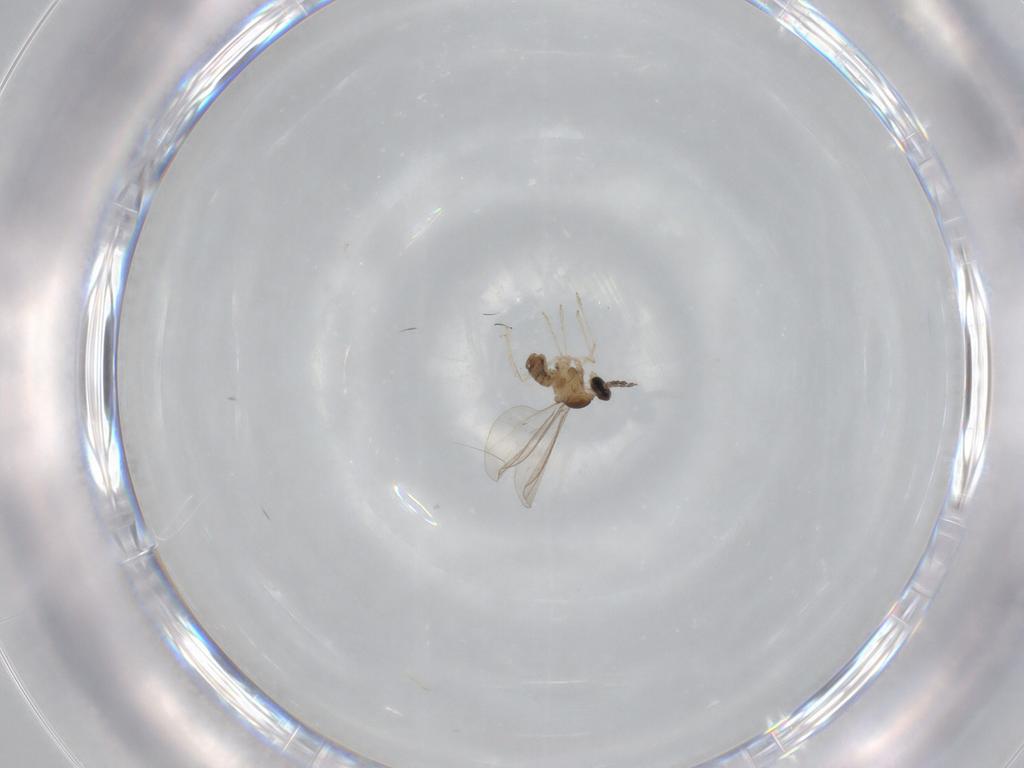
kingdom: Animalia
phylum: Arthropoda
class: Insecta
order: Diptera
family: Cecidomyiidae
